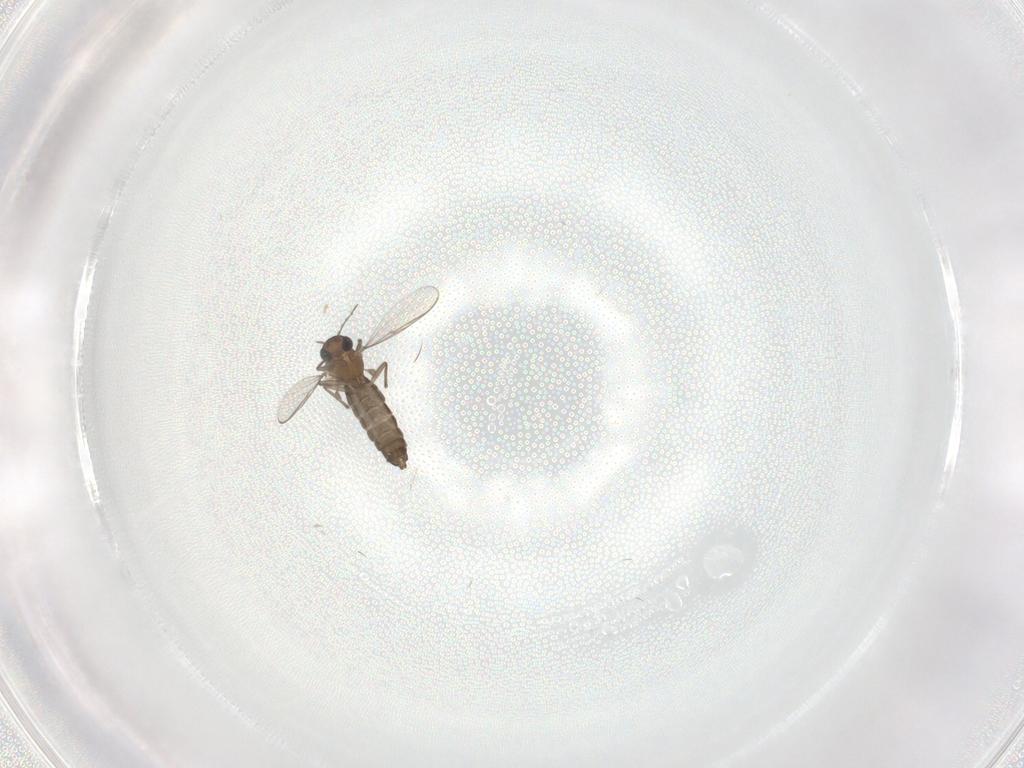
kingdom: Animalia
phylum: Arthropoda
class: Insecta
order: Diptera
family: Chironomidae
